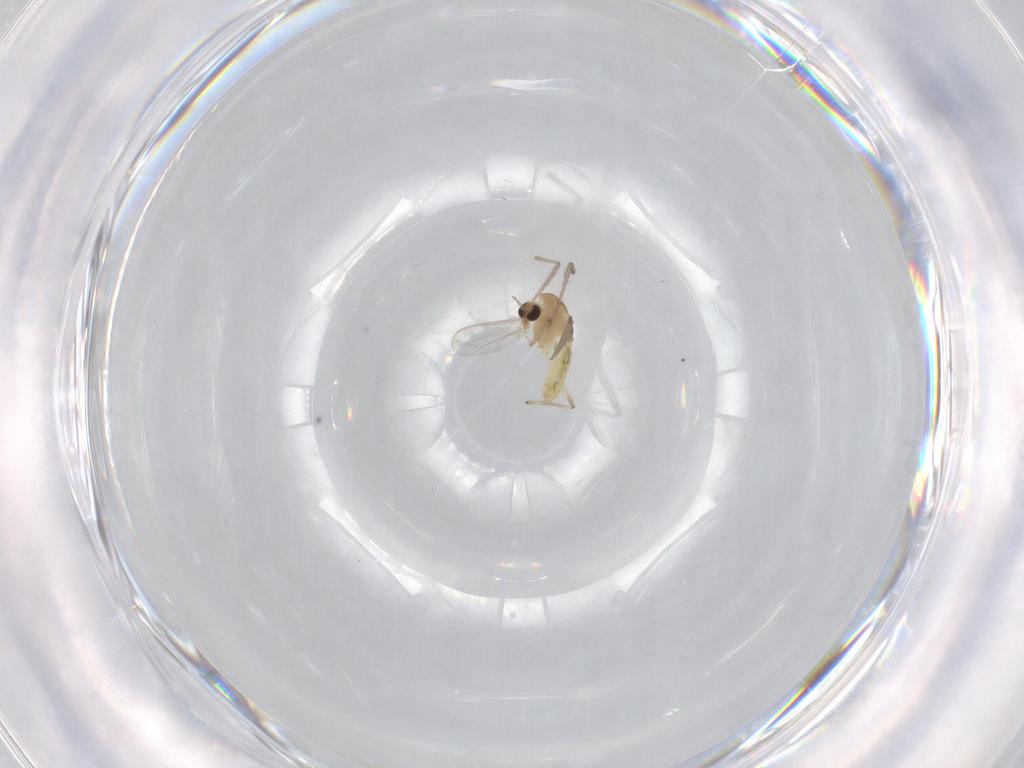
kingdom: Animalia
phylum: Arthropoda
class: Insecta
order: Diptera
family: Chironomidae
